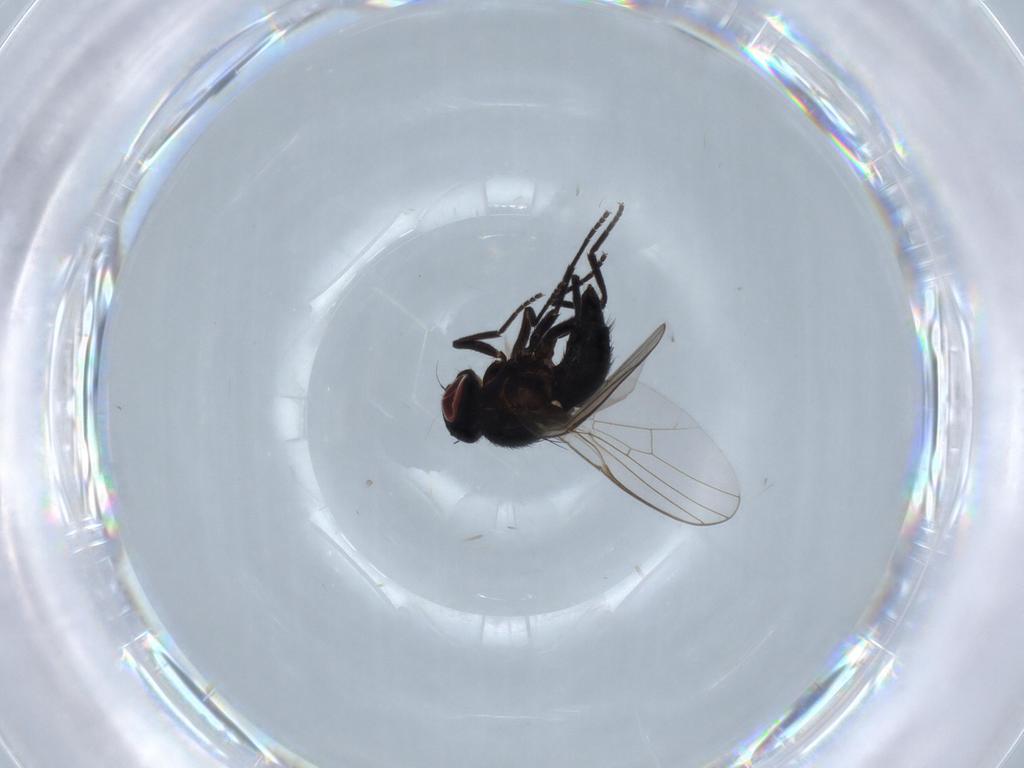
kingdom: Animalia
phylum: Arthropoda
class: Insecta
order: Diptera
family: Agromyzidae
